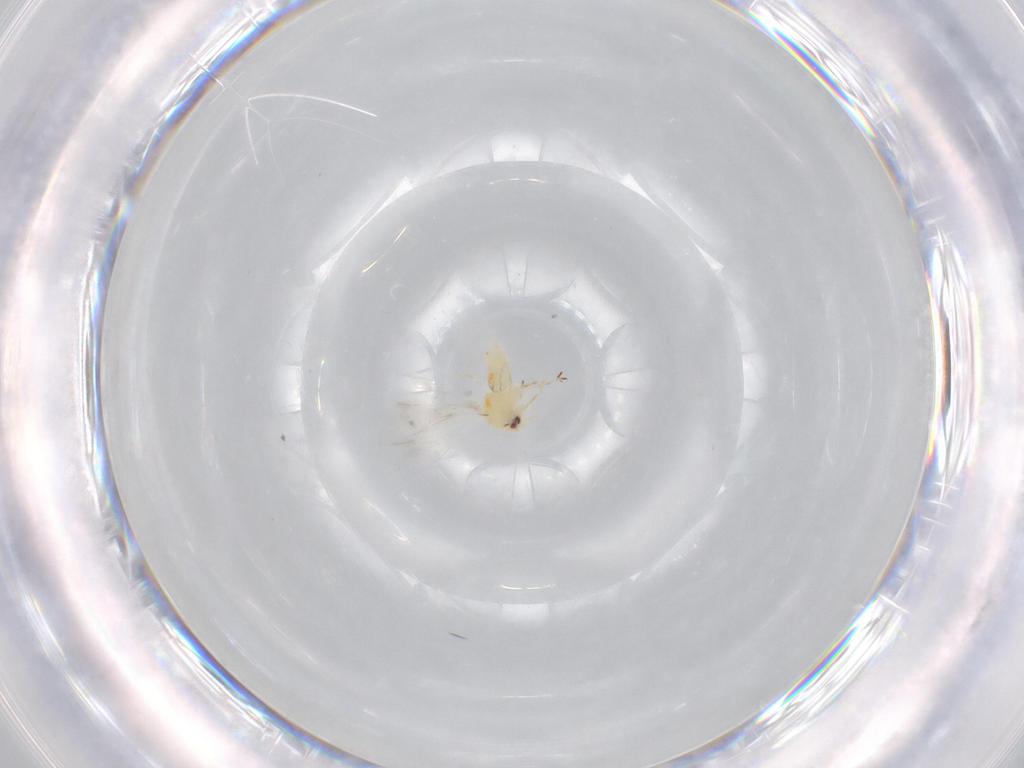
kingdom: Animalia
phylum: Arthropoda
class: Insecta
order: Hemiptera
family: Aleyrodidae
